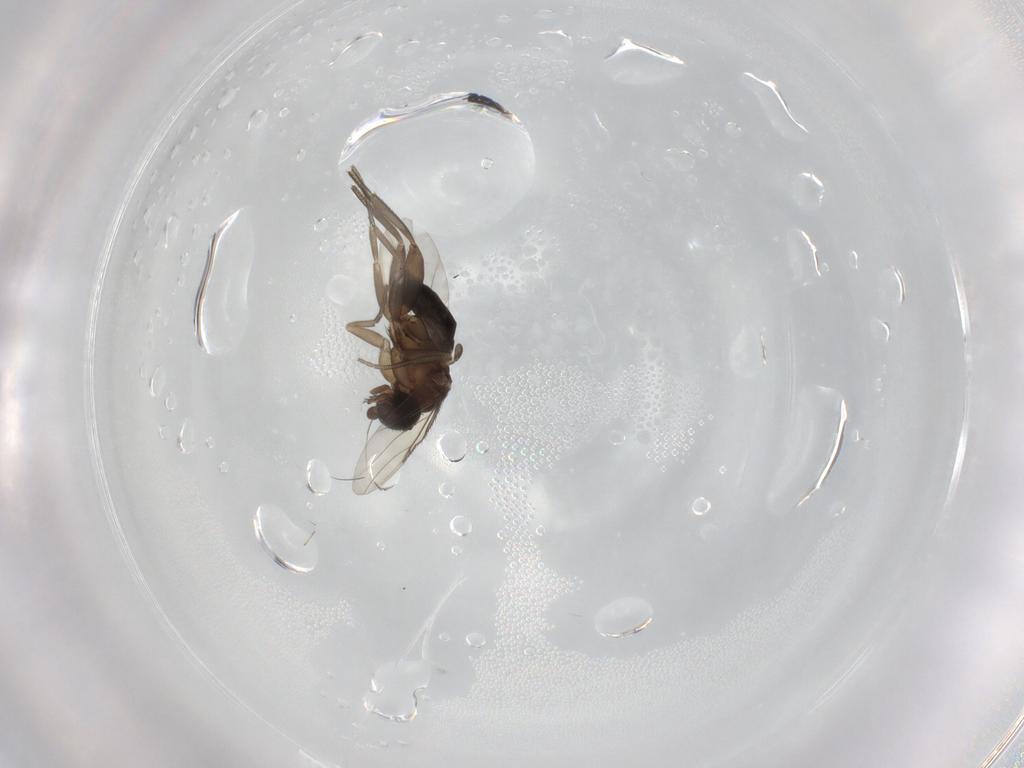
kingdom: Animalia
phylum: Arthropoda
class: Insecta
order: Diptera
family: Phoridae
